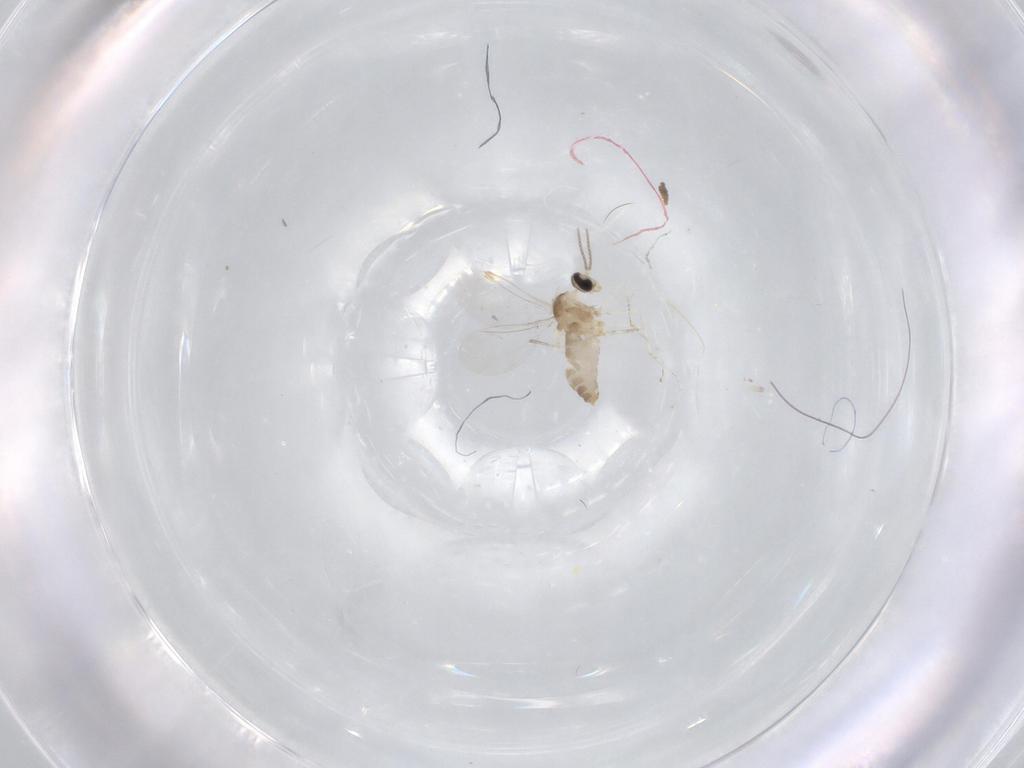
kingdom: Animalia
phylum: Arthropoda
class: Insecta
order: Diptera
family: Cecidomyiidae
